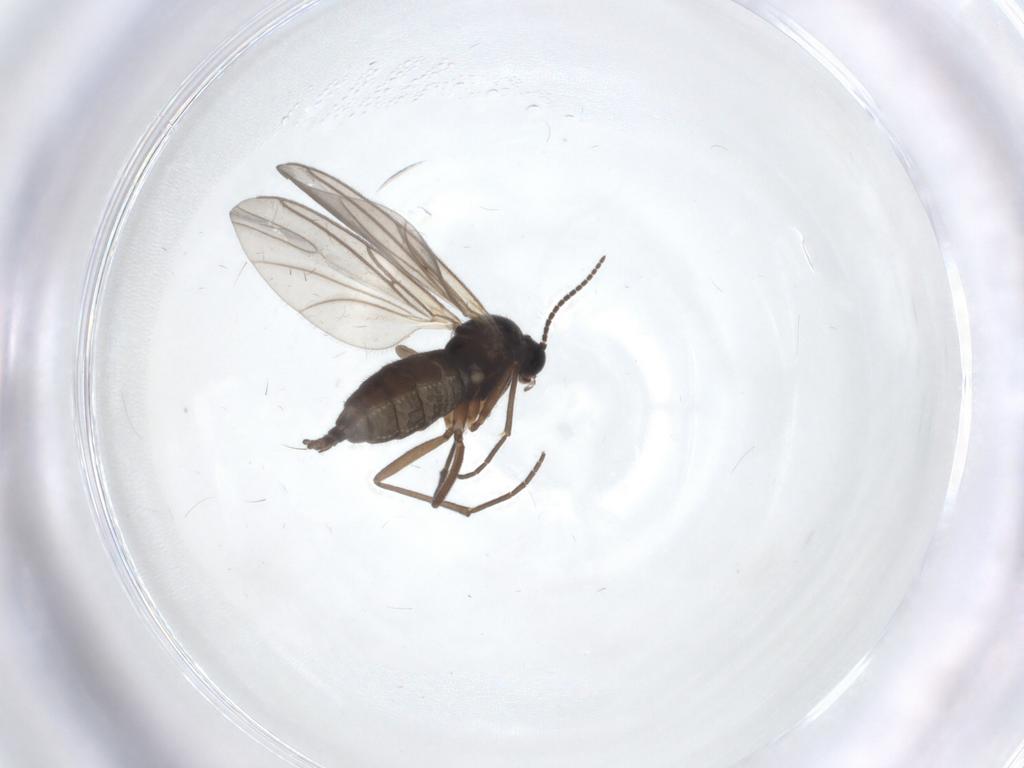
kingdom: Animalia
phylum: Arthropoda
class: Insecta
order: Diptera
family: Sciaridae
